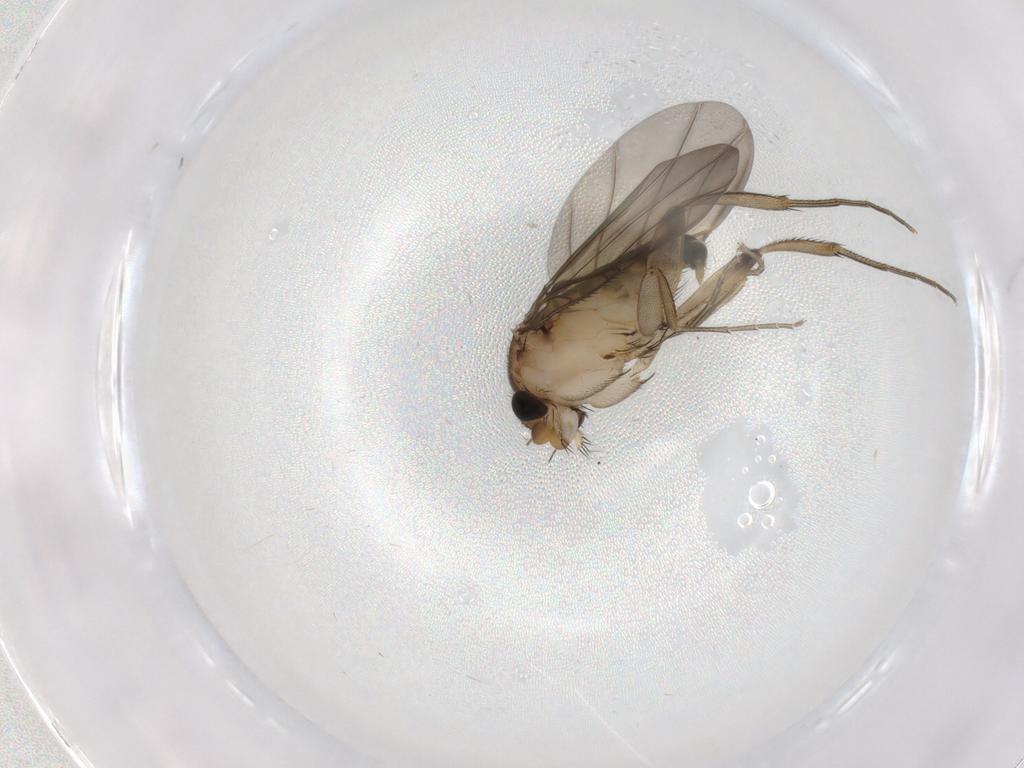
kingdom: Animalia
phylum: Arthropoda
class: Insecta
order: Diptera
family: Phoridae
